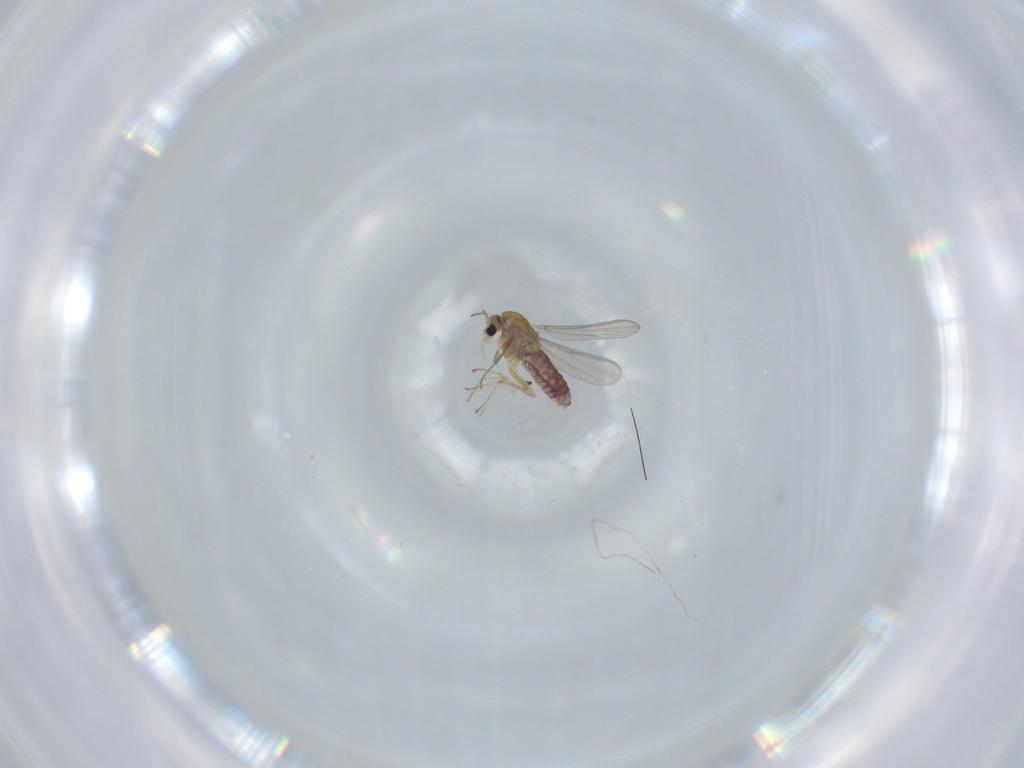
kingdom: Animalia
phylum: Arthropoda
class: Insecta
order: Diptera
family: Chironomidae
